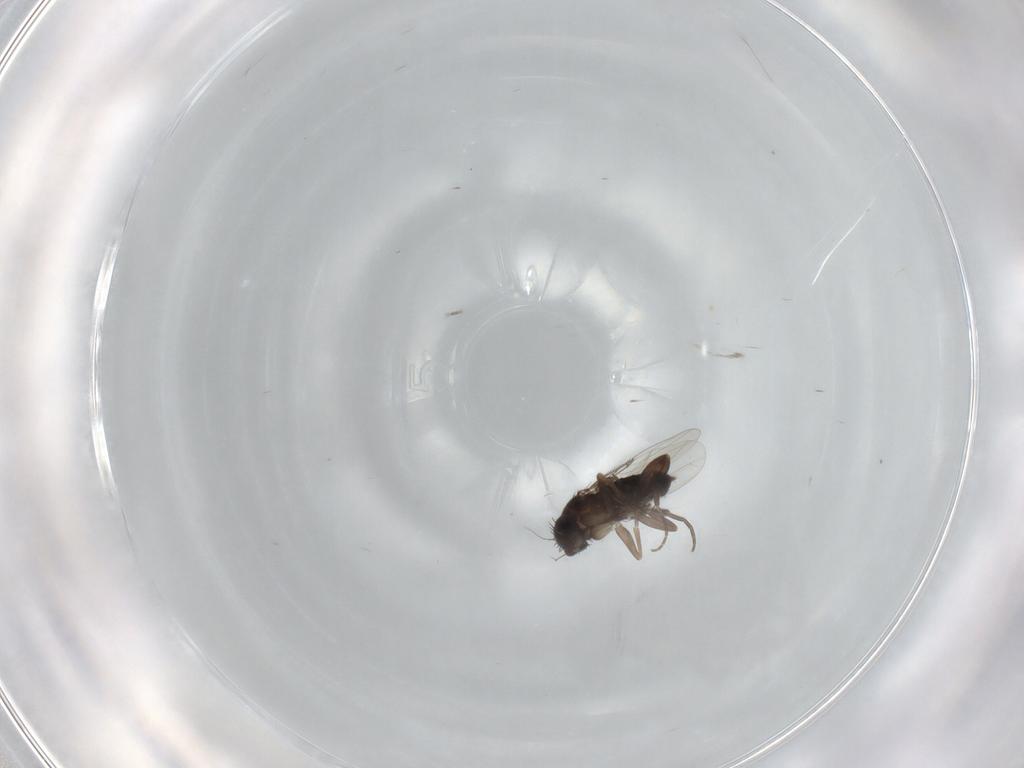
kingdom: Animalia
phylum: Arthropoda
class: Insecta
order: Diptera
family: Phoridae
